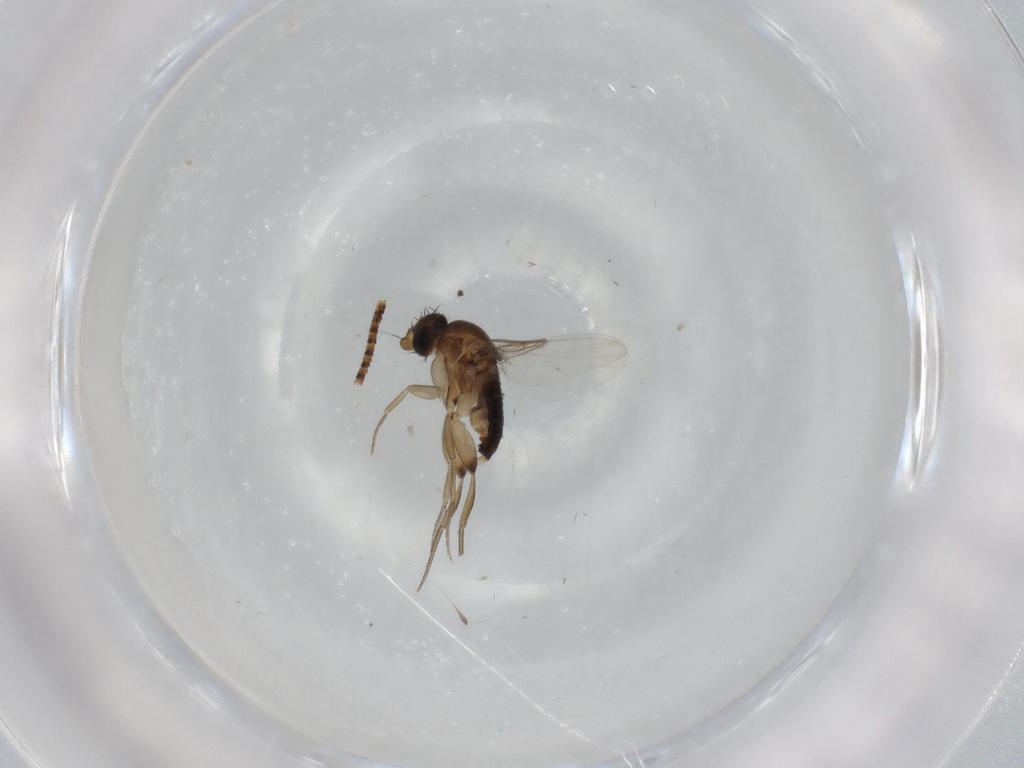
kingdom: Animalia
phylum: Arthropoda
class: Insecta
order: Diptera
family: Phoridae
